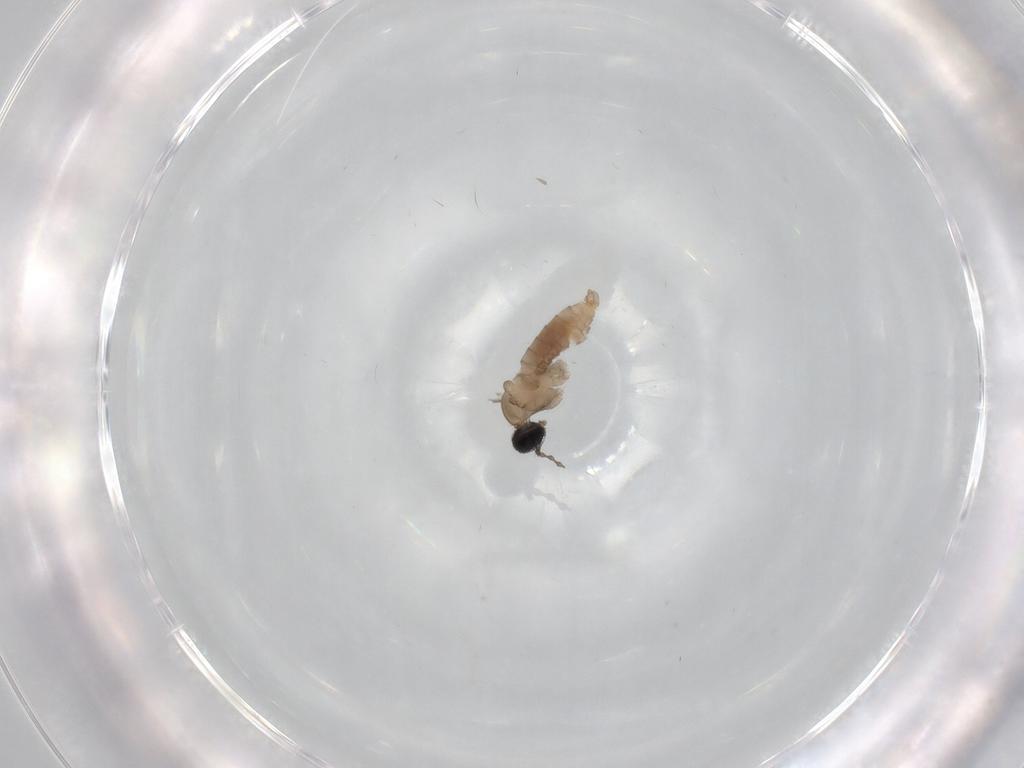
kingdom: Animalia
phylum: Arthropoda
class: Insecta
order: Diptera
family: Cecidomyiidae
